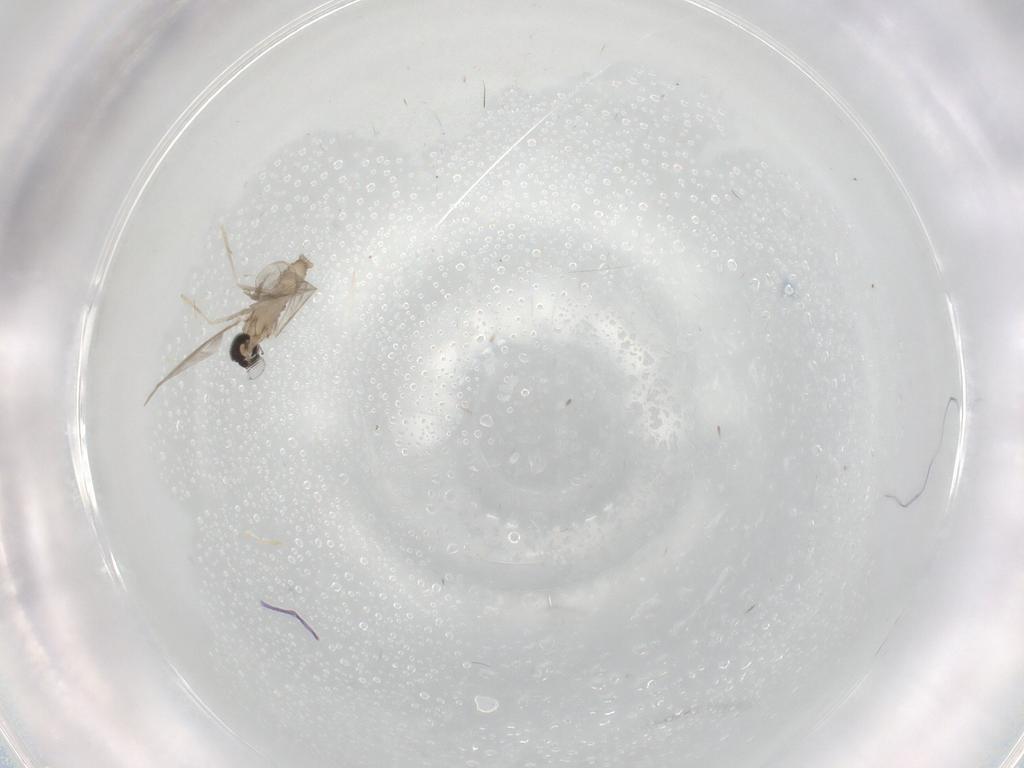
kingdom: Animalia
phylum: Arthropoda
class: Insecta
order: Diptera
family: Cecidomyiidae
